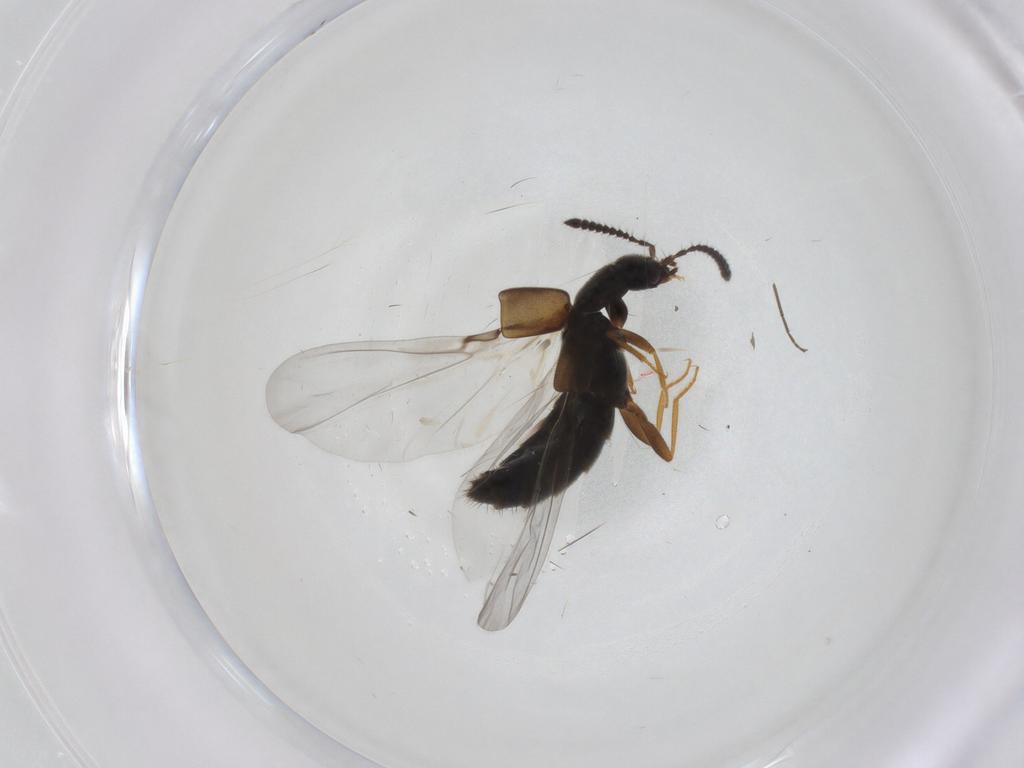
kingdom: Animalia
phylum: Arthropoda
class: Insecta
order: Coleoptera
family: Staphylinidae
